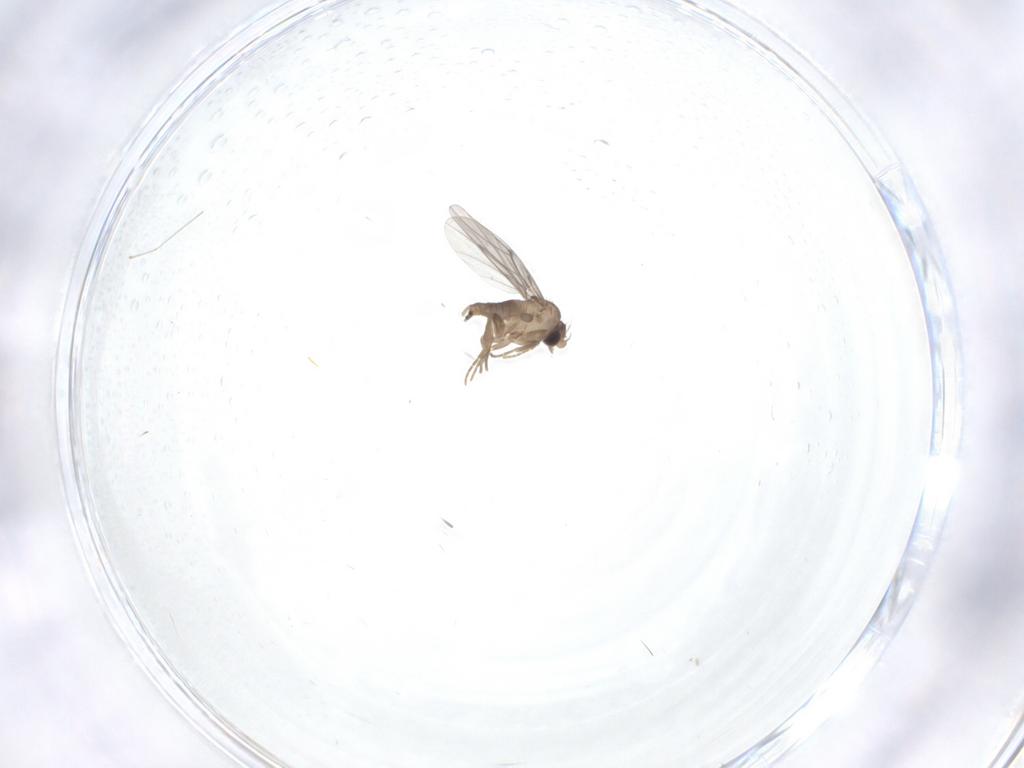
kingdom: Animalia
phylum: Arthropoda
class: Insecta
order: Diptera
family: Cecidomyiidae
